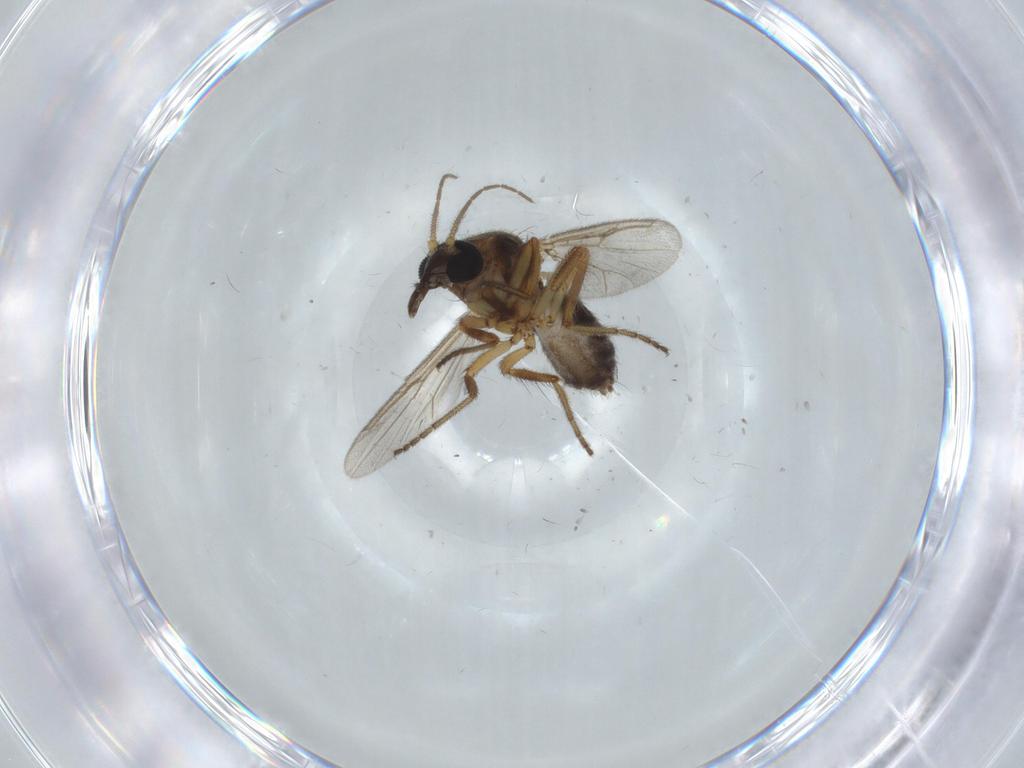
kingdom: Animalia
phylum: Arthropoda
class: Insecta
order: Diptera
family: Ceratopogonidae
